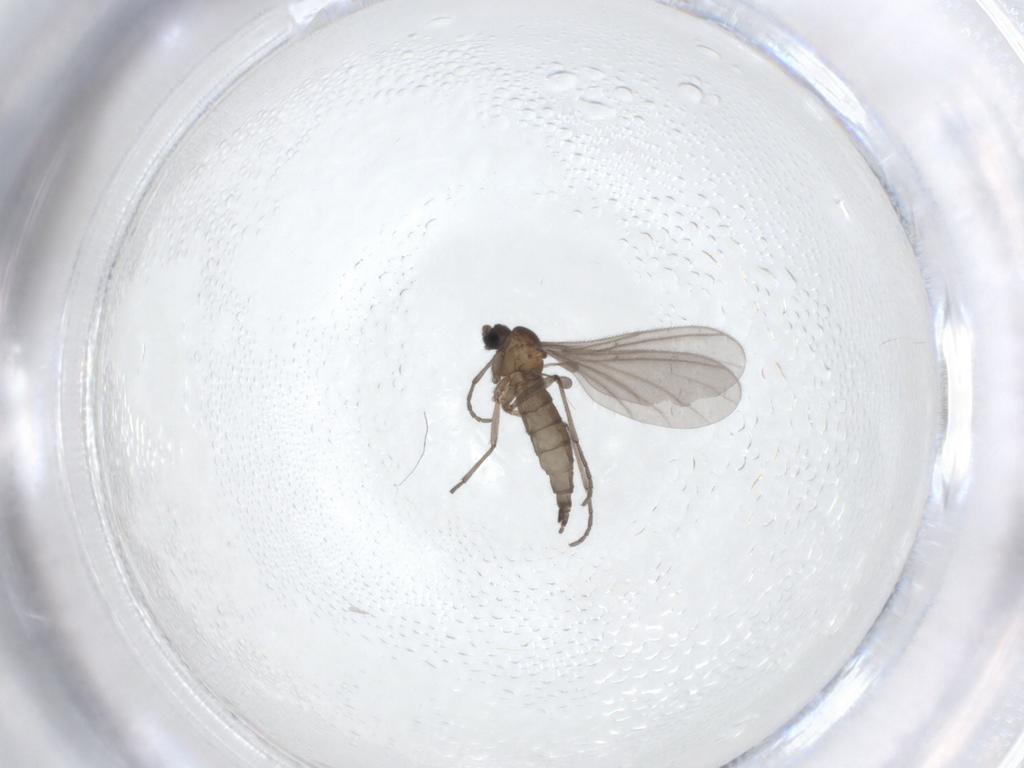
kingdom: Animalia
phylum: Arthropoda
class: Insecta
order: Diptera
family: Sciaridae
